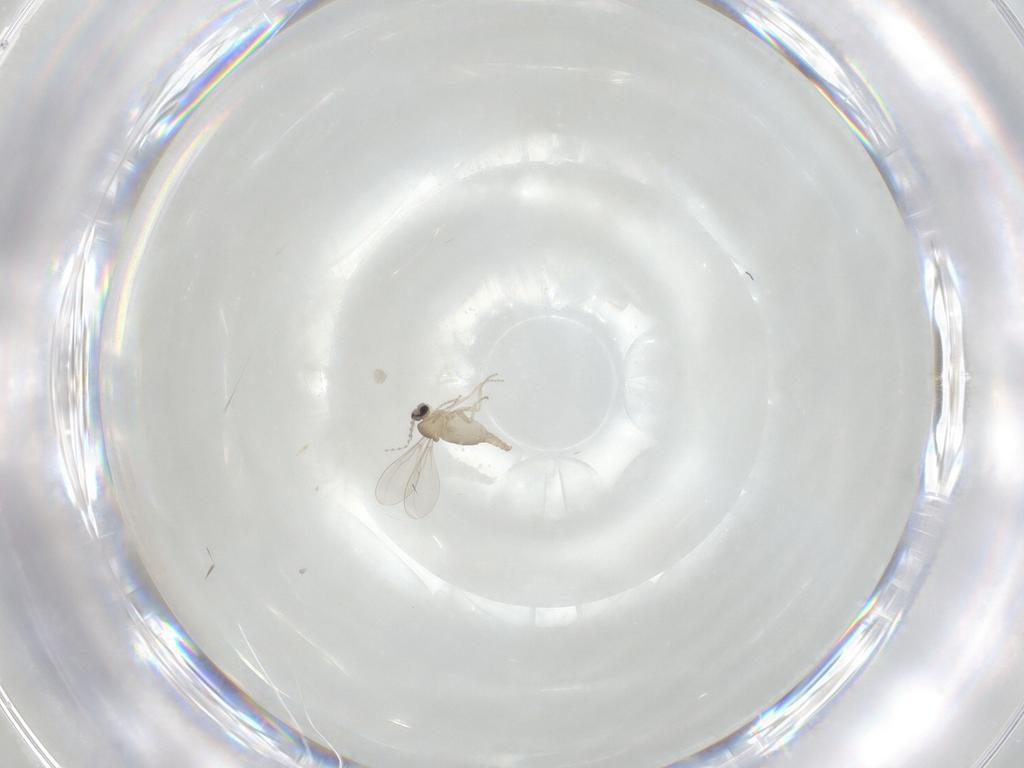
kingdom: Animalia
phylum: Arthropoda
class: Insecta
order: Diptera
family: Cecidomyiidae
